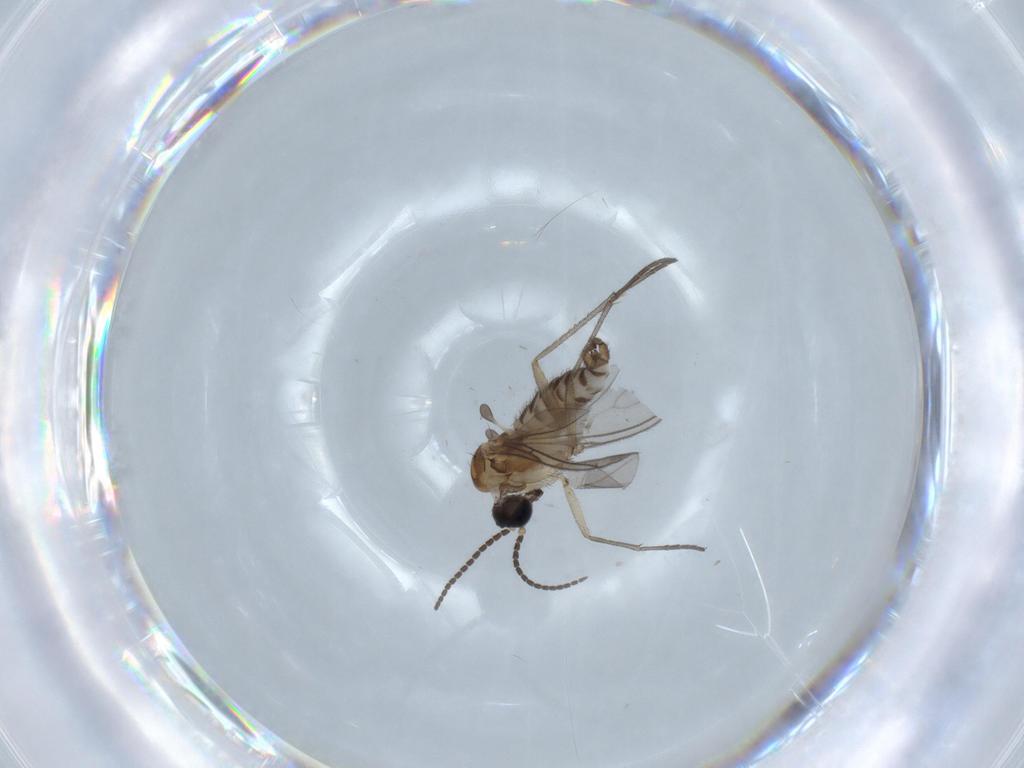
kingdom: Animalia
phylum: Arthropoda
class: Insecta
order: Diptera
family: Sciaridae
